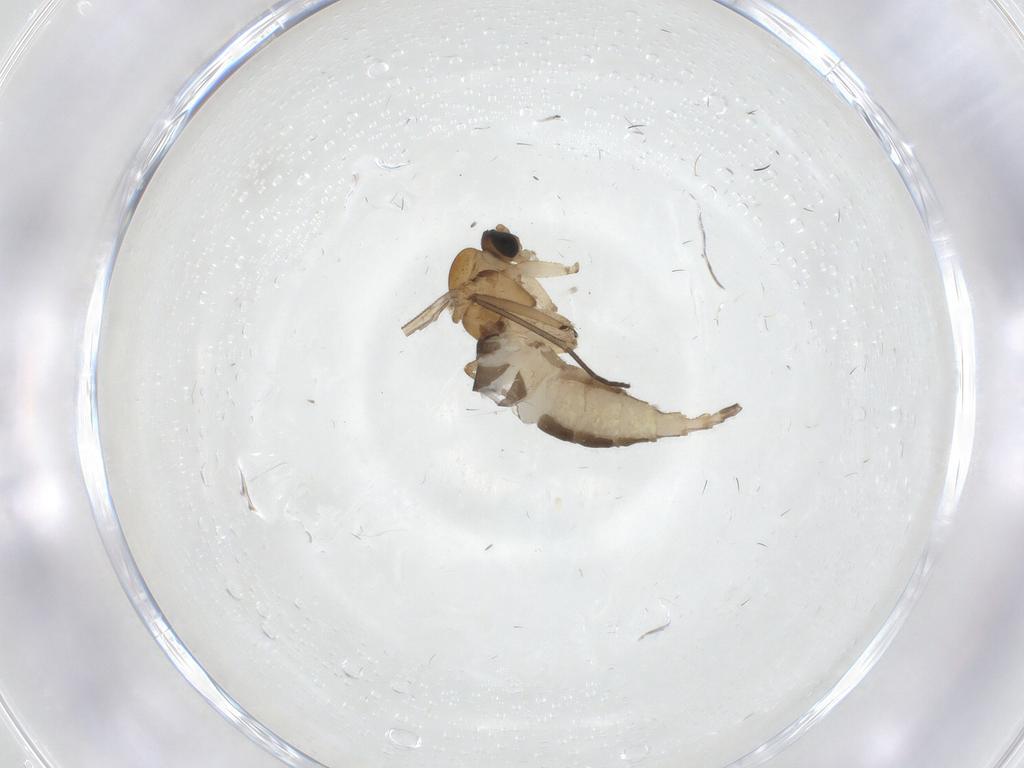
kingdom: Animalia
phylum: Arthropoda
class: Insecta
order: Diptera
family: Sciaridae
